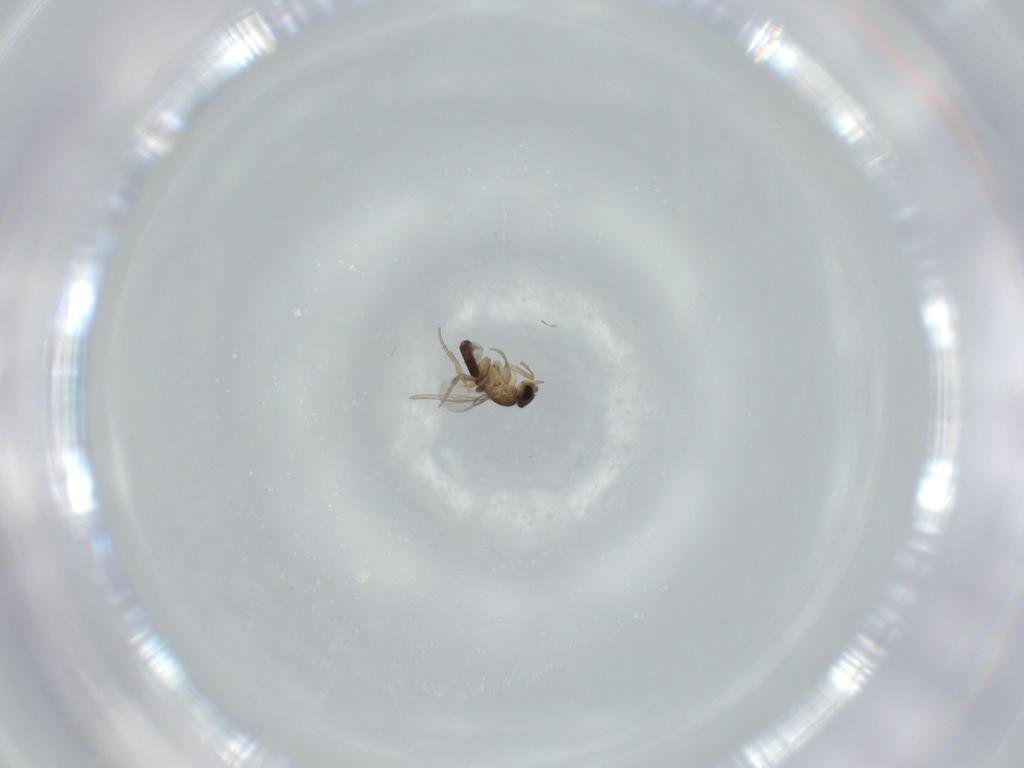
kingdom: Animalia
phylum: Arthropoda
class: Insecta
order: Diptera
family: Phoridae
